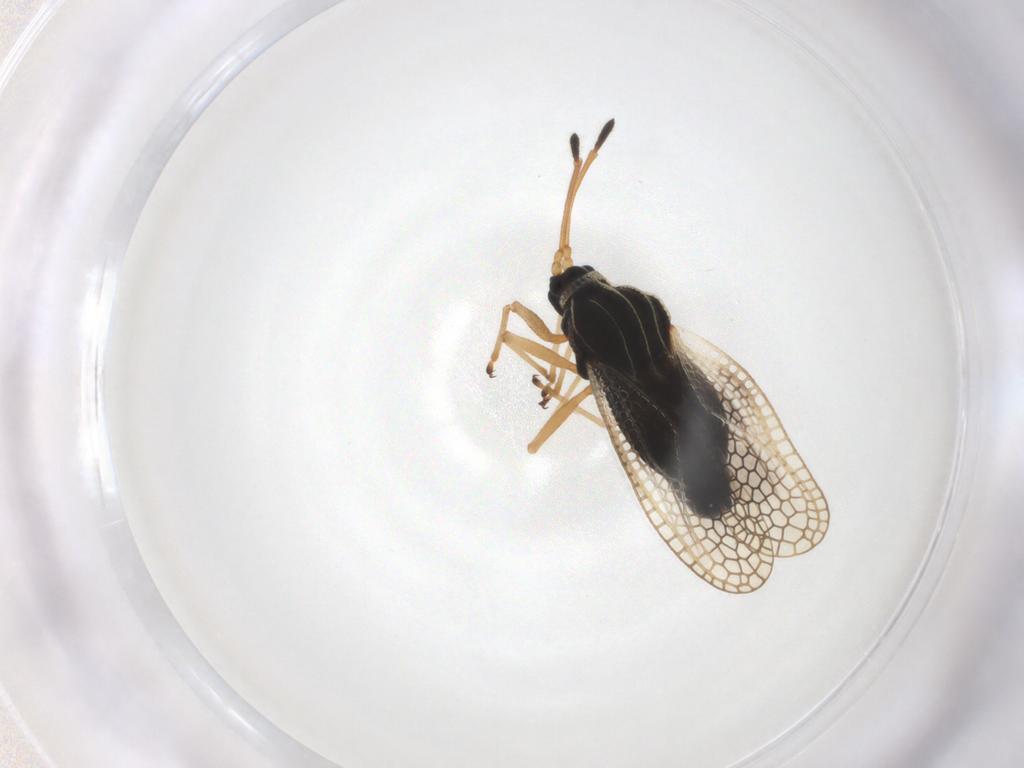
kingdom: Animalia
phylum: Arthropoda
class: Insecta
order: Hemiptera
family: Tingidae
